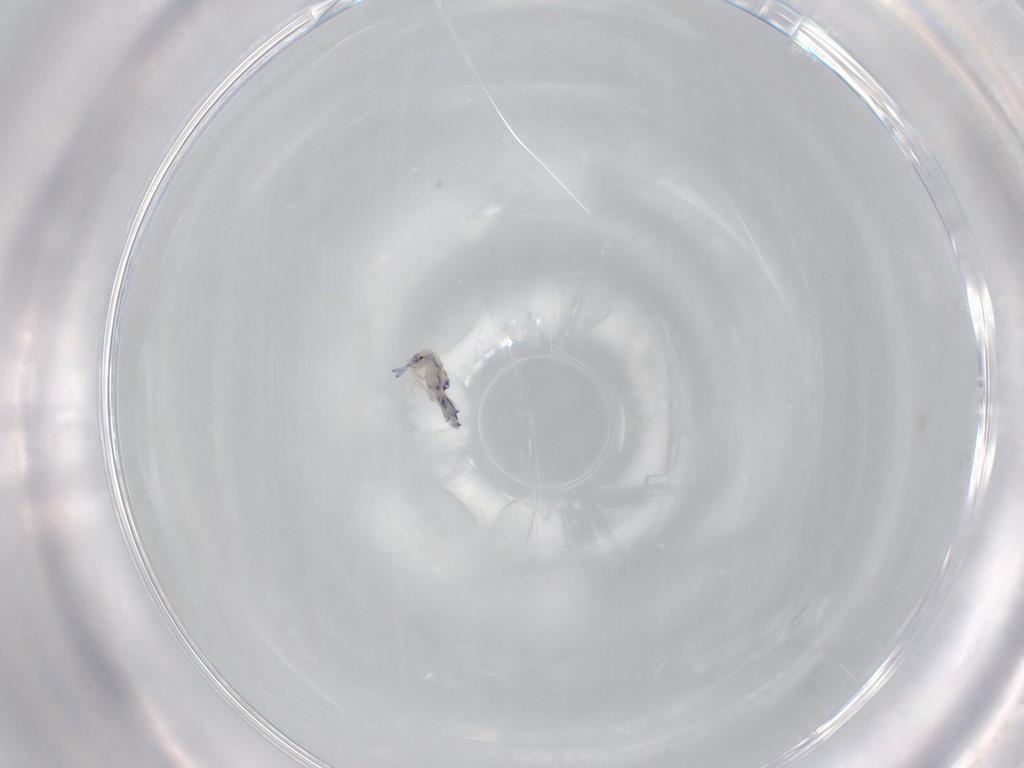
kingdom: Animalia
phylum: Arthropoda
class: Collembola
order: Entomobryomorpha
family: Entomobryidae
